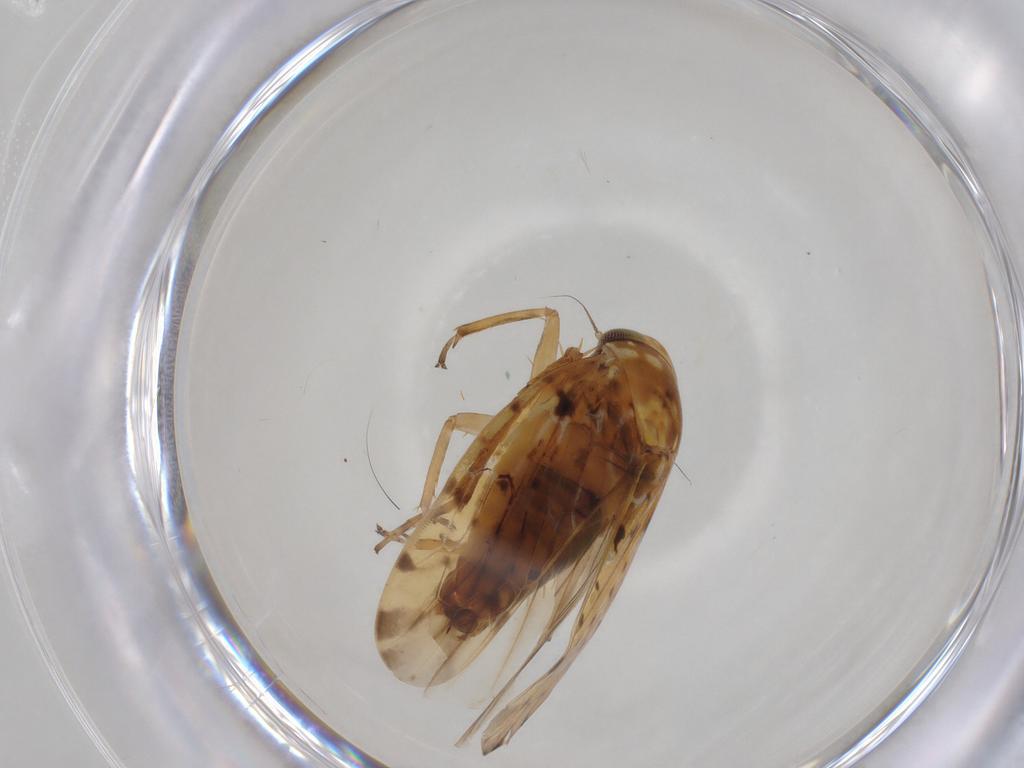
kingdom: Animalia
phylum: Arthropoda
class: Insecta
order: Hemiptera
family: Cicadellidae
